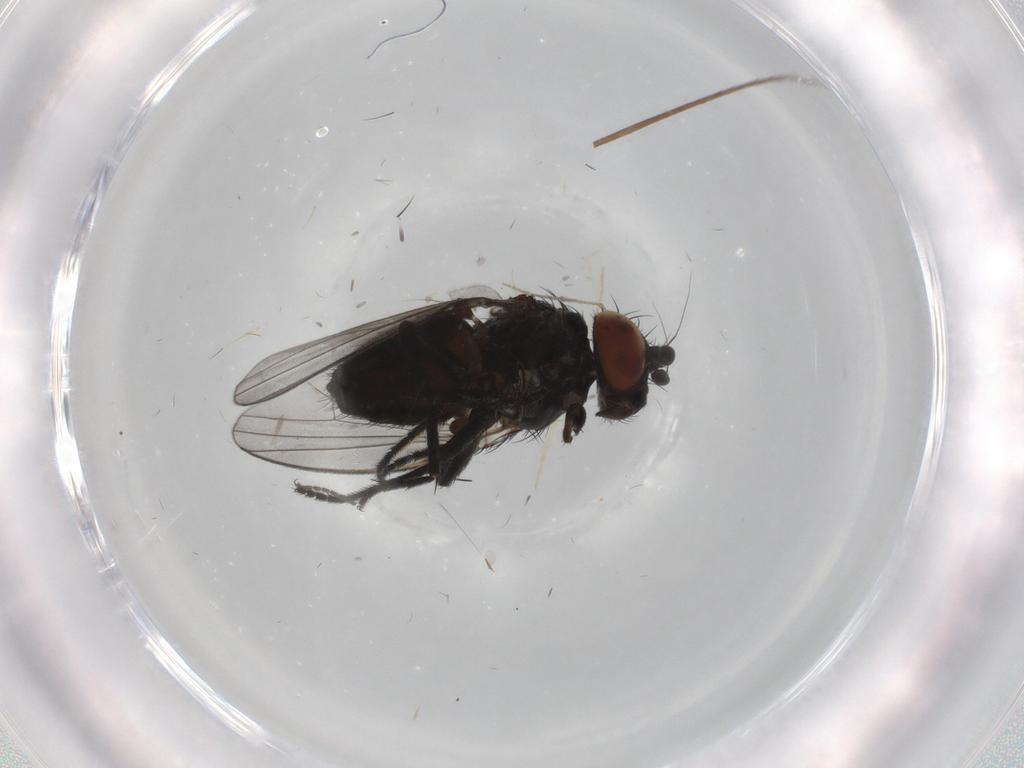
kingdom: Animalia
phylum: Arthropoda
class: Insecta
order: Diptera
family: Milichiidae
